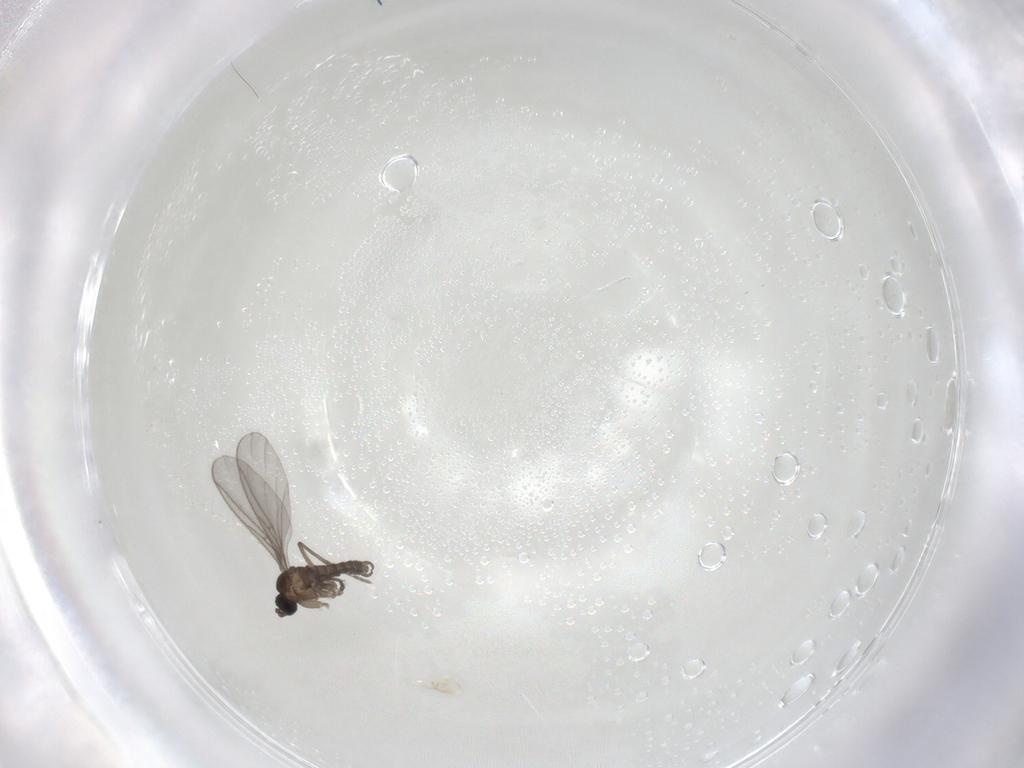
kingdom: Animalia
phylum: Arthropoda
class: Insecta
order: Diptera
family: Sciaridae
